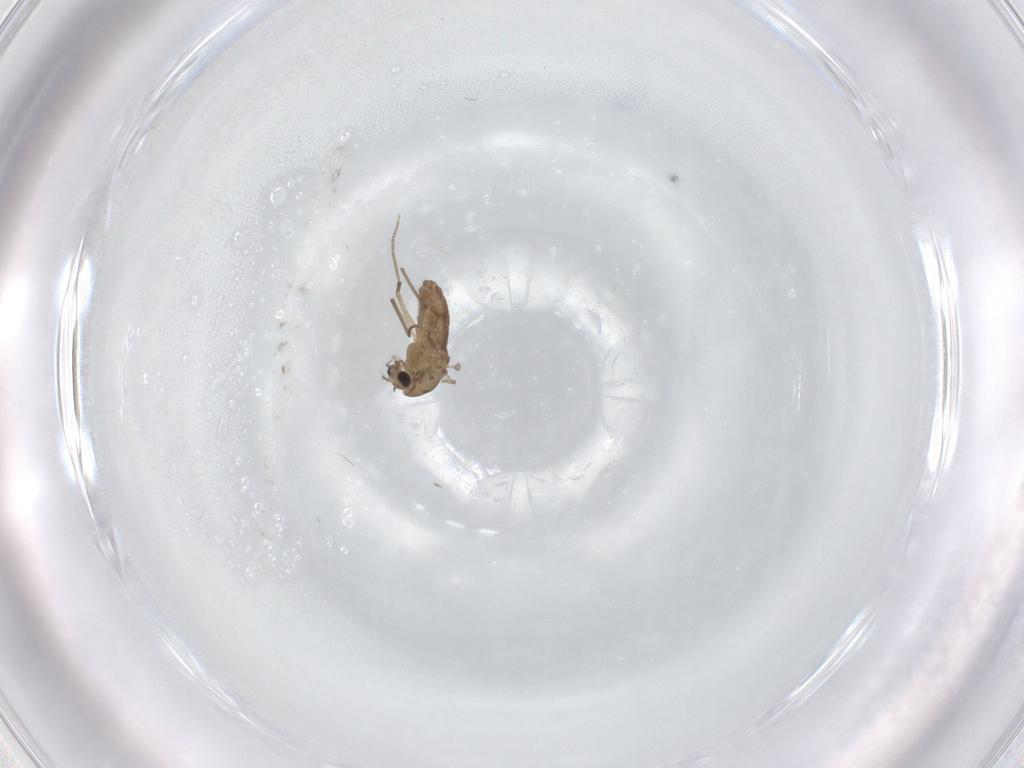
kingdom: Animalia
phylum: Arthropoda
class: Insecta
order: Diptera
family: Chironomidae
